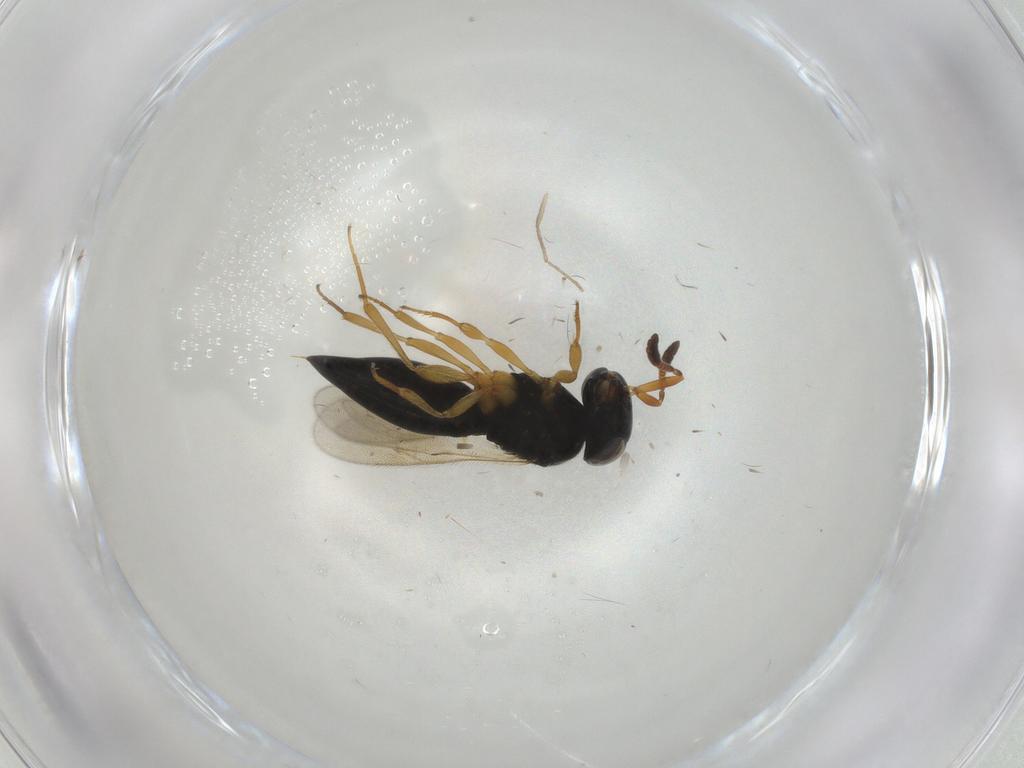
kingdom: Animalia
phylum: Arthropoda
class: Insecta
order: Hymenoptera
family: Scelionidae
